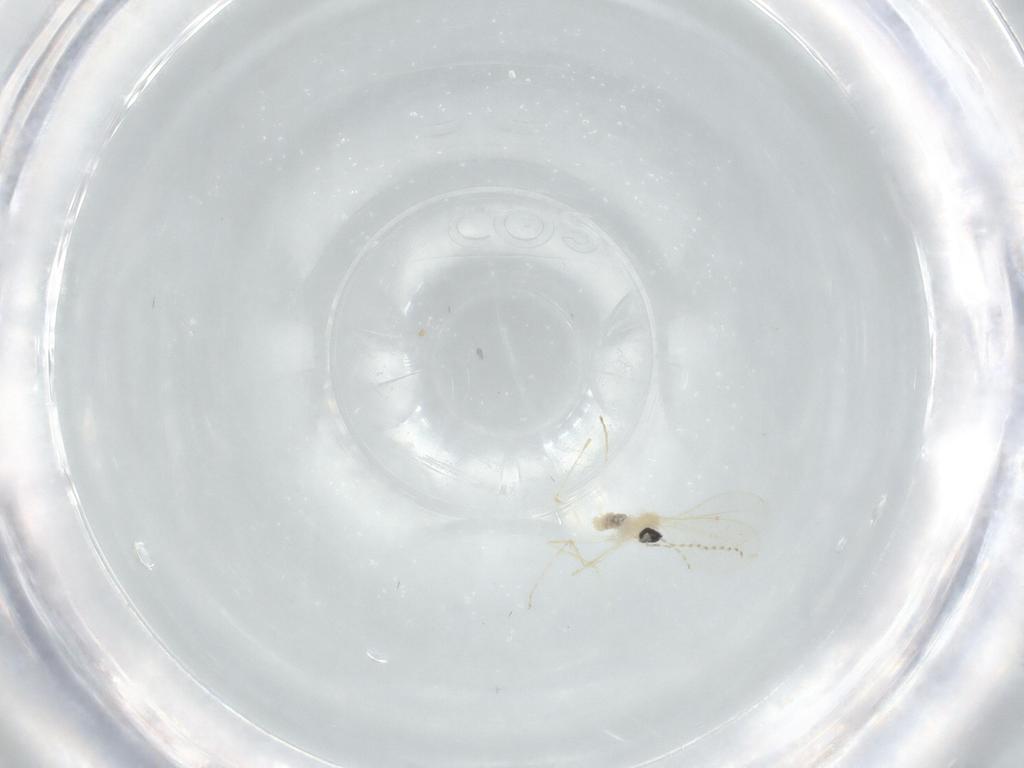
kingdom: Animalia
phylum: Arthropoda
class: Insecta
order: Diptera
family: Cecidomyiidae
